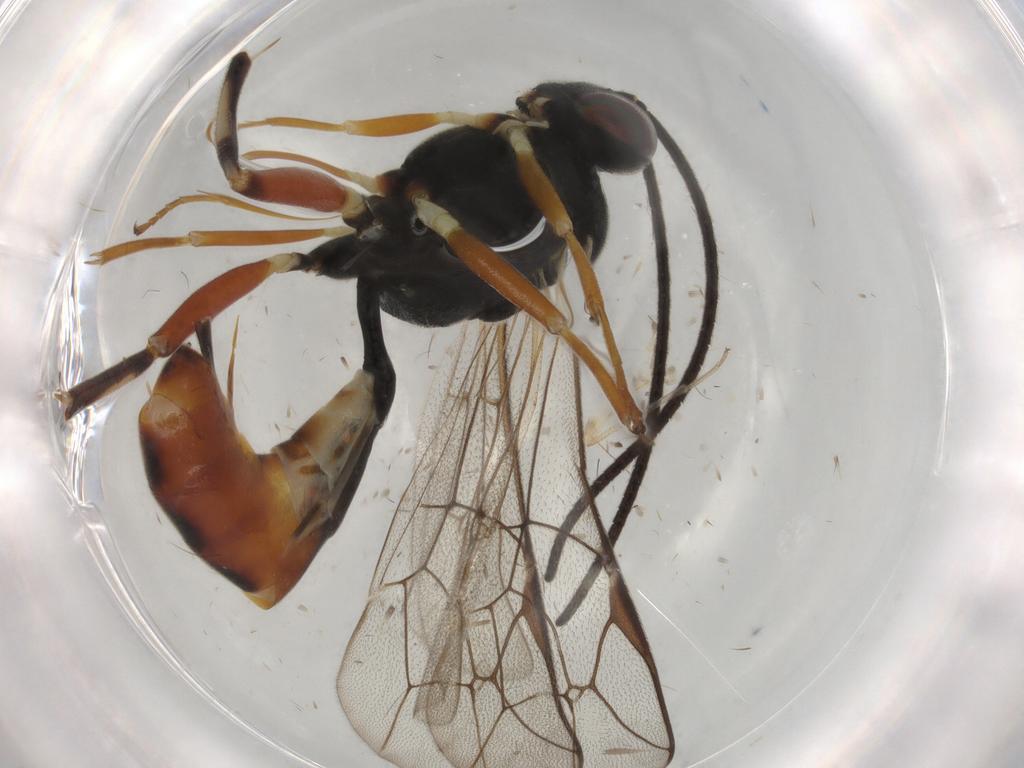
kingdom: Animalia
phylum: Arthropoda
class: Insecta
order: Hymenoptera
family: Ichneumonidae
